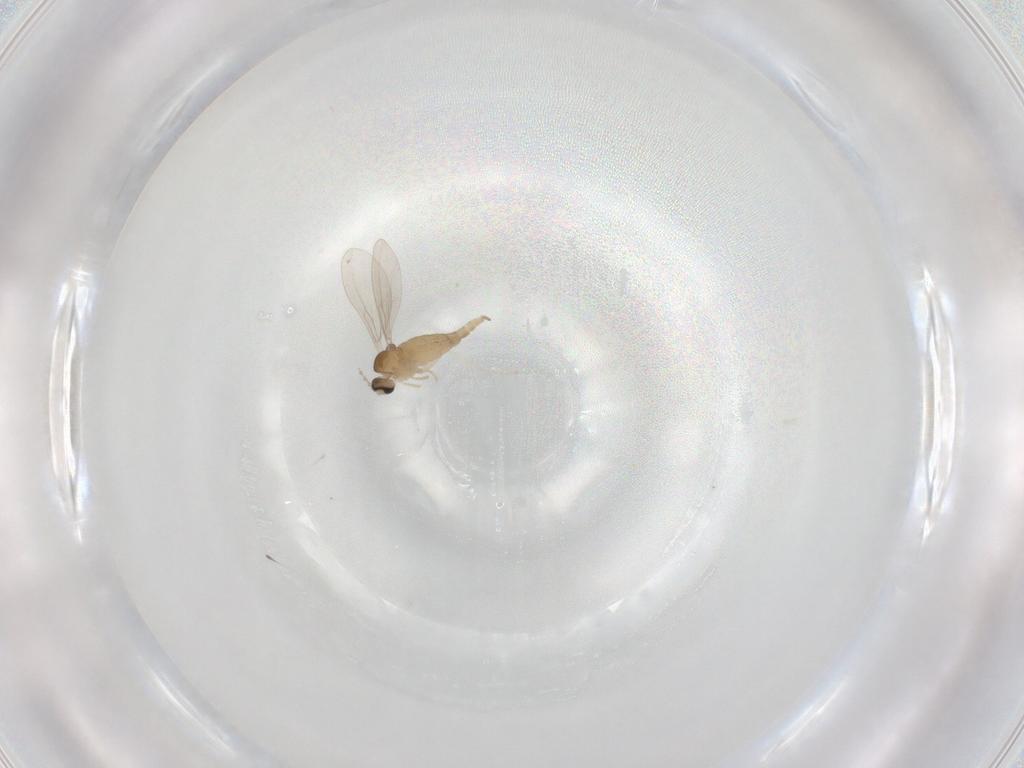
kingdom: Animalia
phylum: Arthropoda
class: Insecta
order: Diptera
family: Cecidomyiidae
